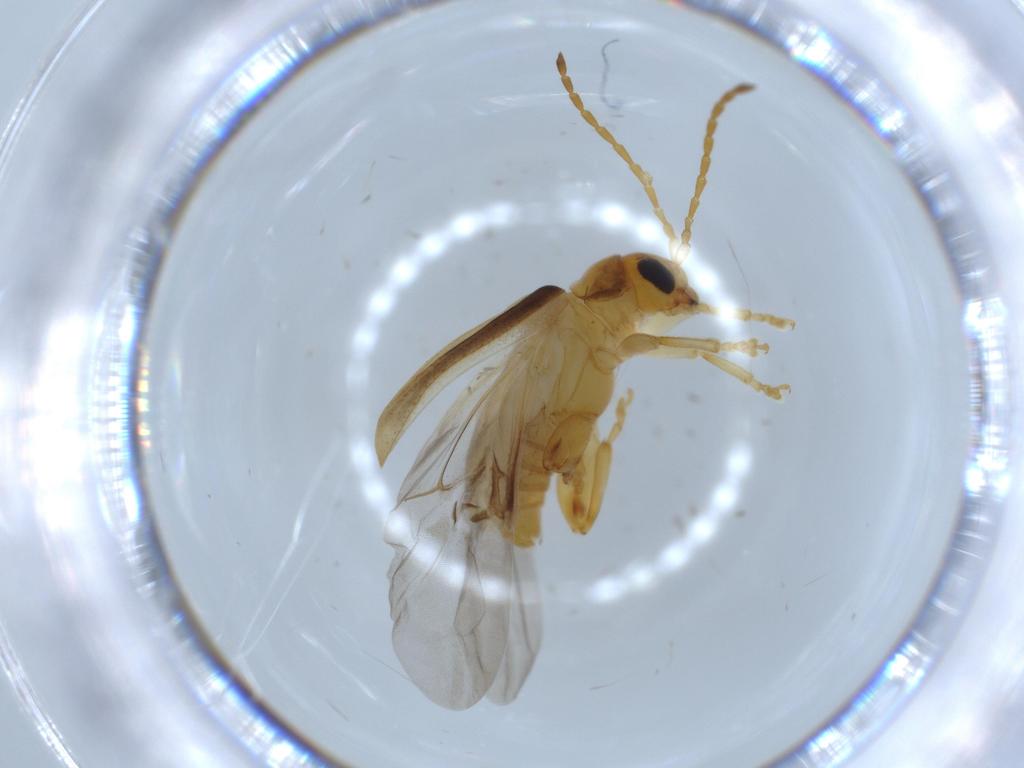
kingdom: Animalia
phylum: Arthropoda
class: Insecta
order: Coleoptera
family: Chrysomelidae
